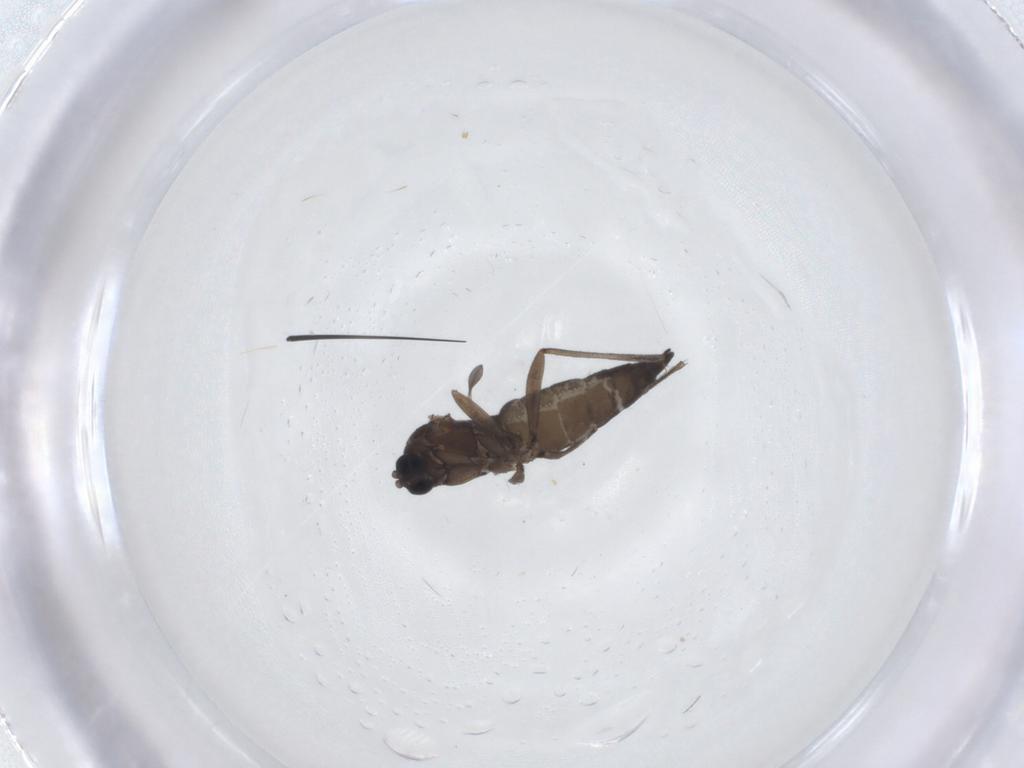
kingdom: Animalia
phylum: Arthropoda
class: Insecta
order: Diptera
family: Sciaridae
